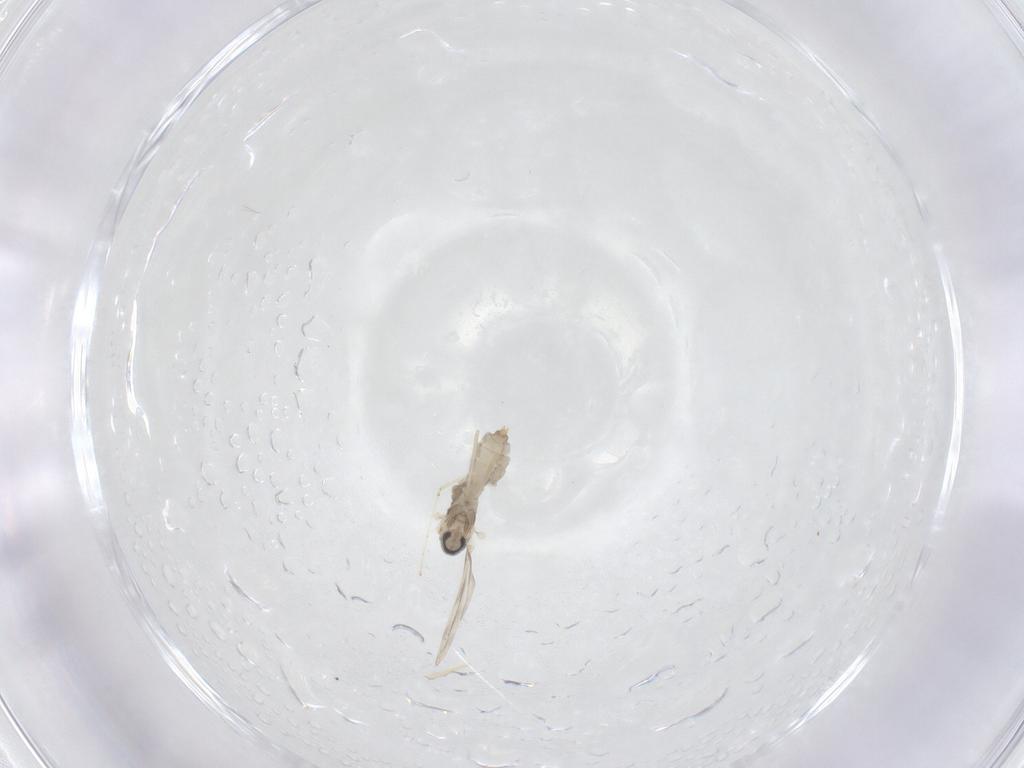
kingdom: Animalia
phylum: Arthropoda
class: Insecta
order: Diptera
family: Cecidomyiidae
